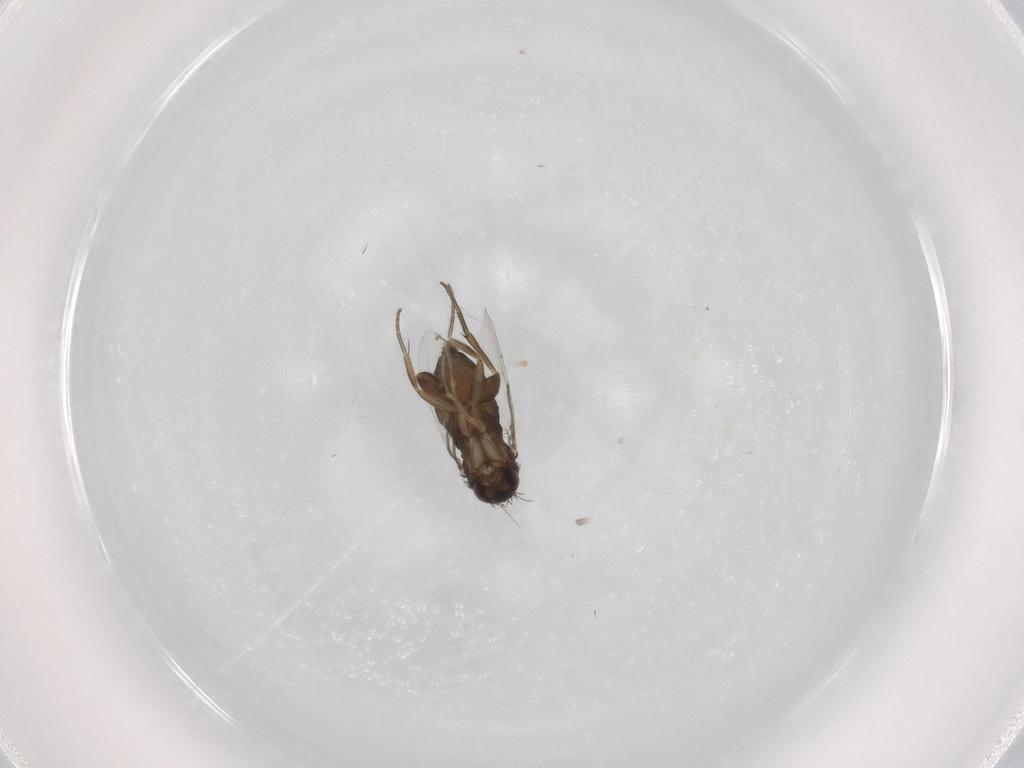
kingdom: Animalia
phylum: Arthropoda
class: Insecta
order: Diptera
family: Phoridae
